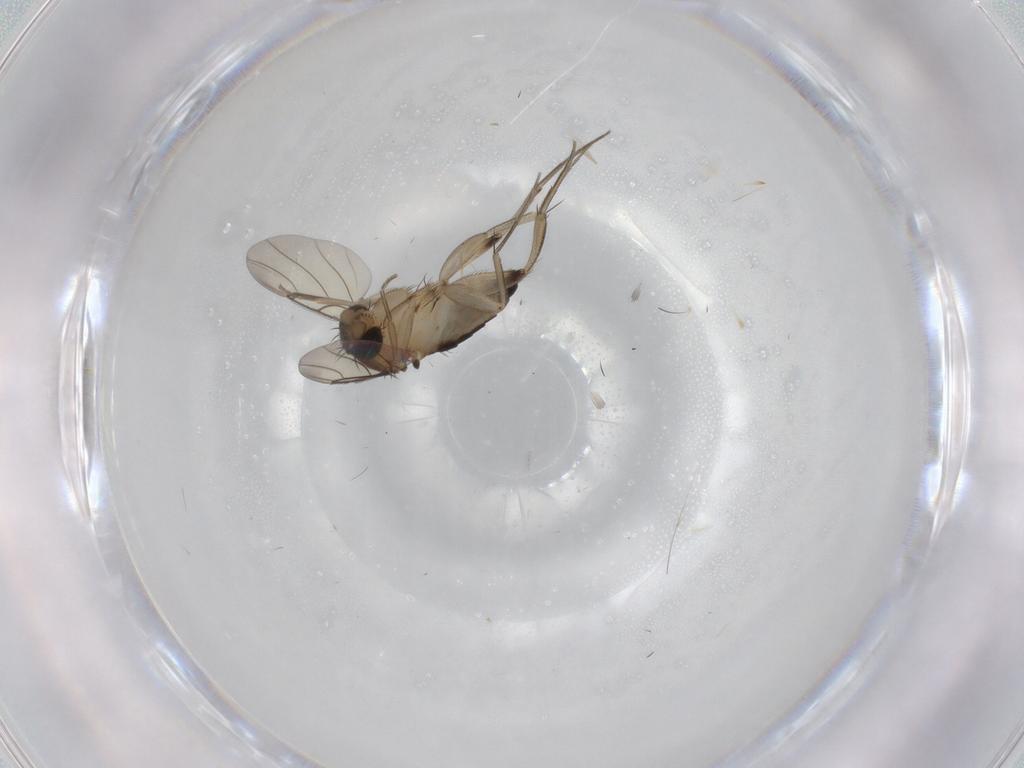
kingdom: Animalia
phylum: Arthropoda
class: Insecta
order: Diptera
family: Phoridae
